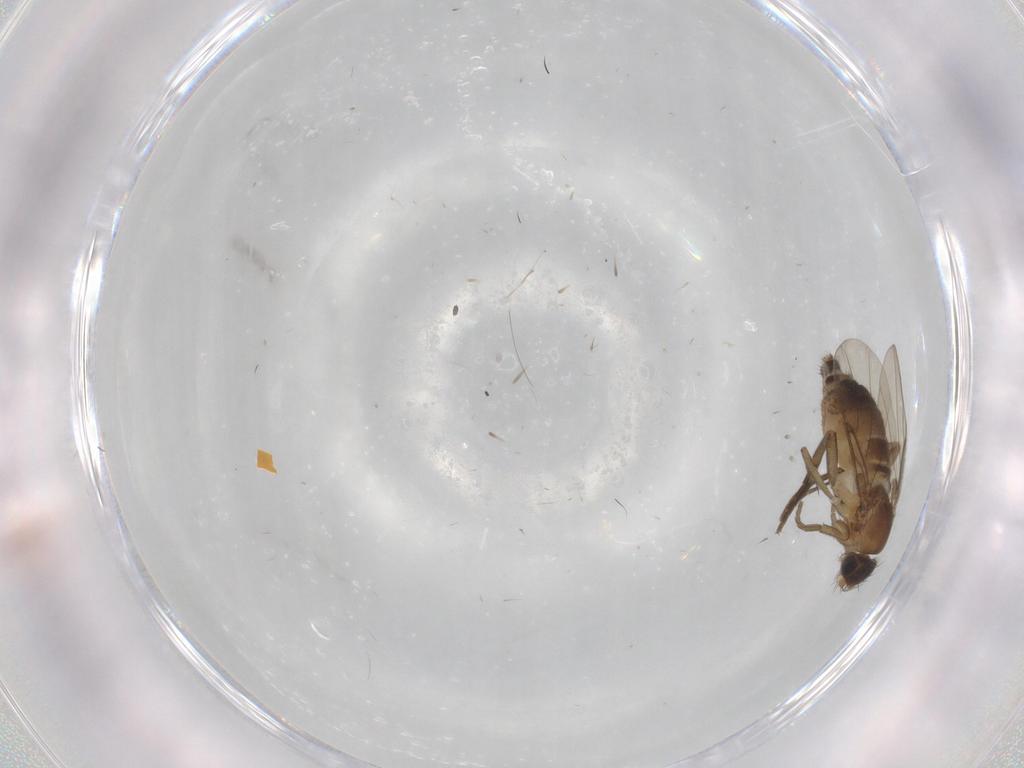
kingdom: Animalia
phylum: Arthropoda
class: Insecta
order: Diptera
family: Phoridae
